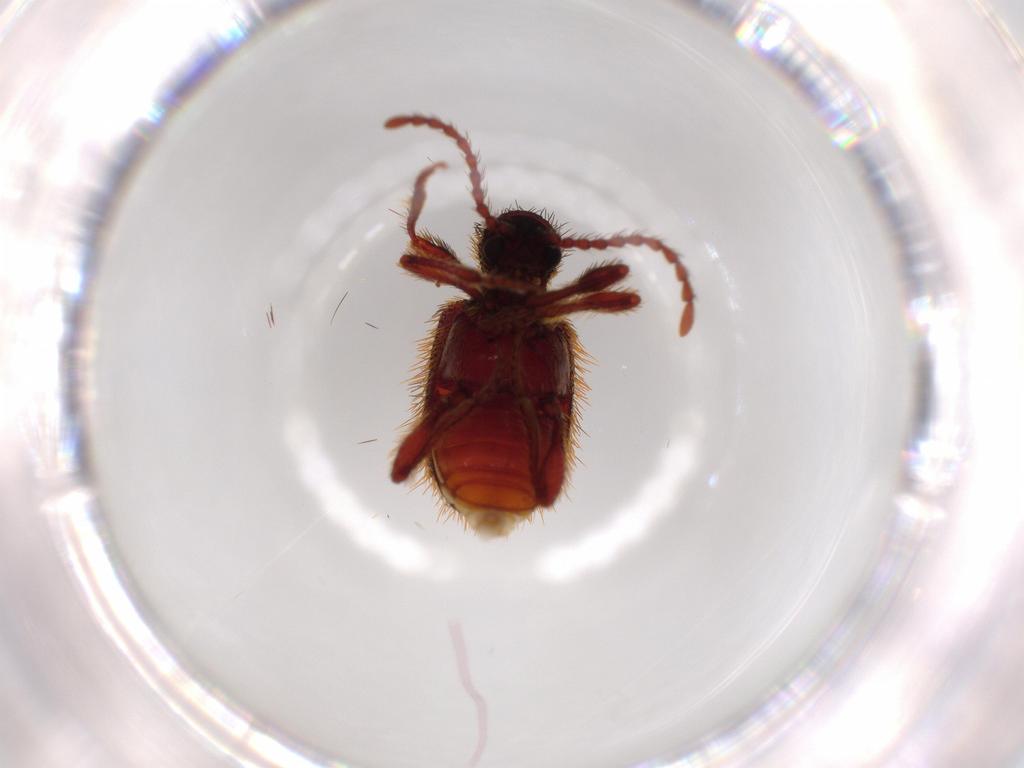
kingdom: Animalia
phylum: Arthropoda
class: Insecta
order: Coleoptera
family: Ptinidae
